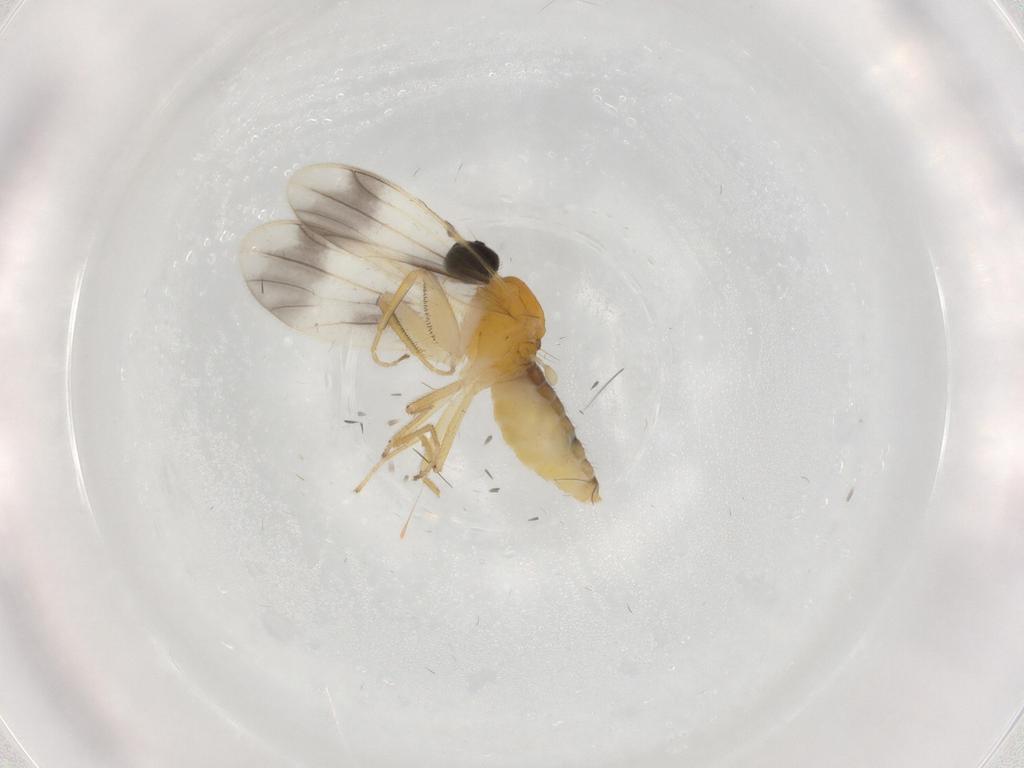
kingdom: Animalia
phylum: Arthropoda
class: Insecta
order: Diptera
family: Empididae
